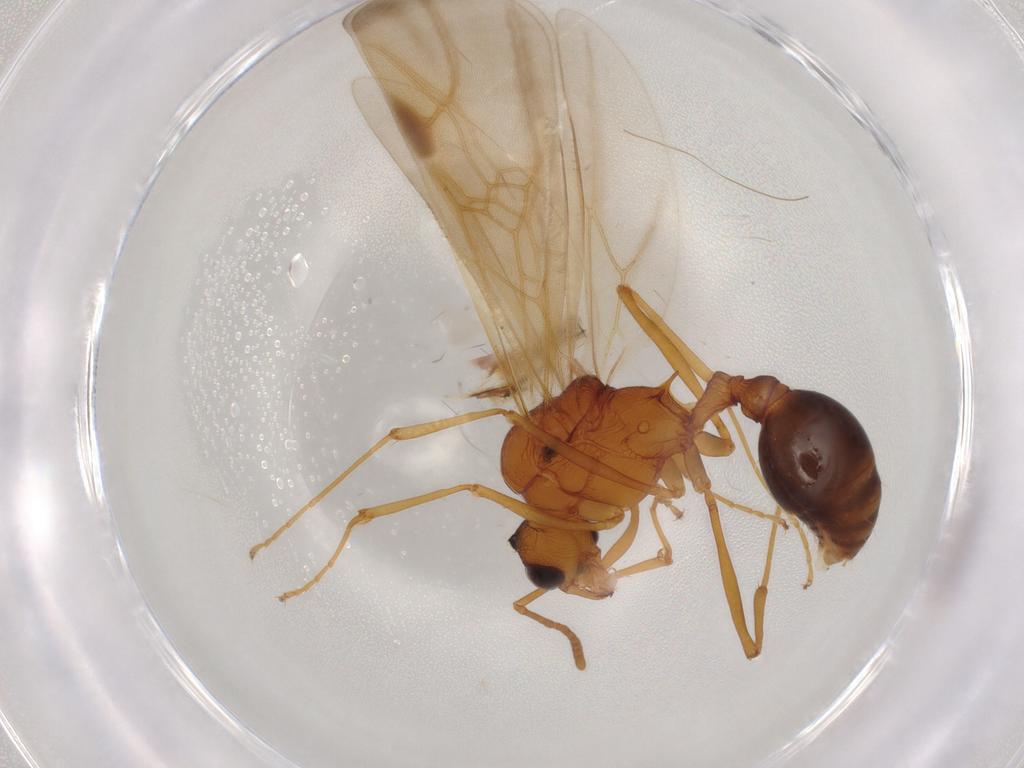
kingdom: Animalia
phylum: Arthropoda
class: Insecta
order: Hymenoptera
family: Formicidae
